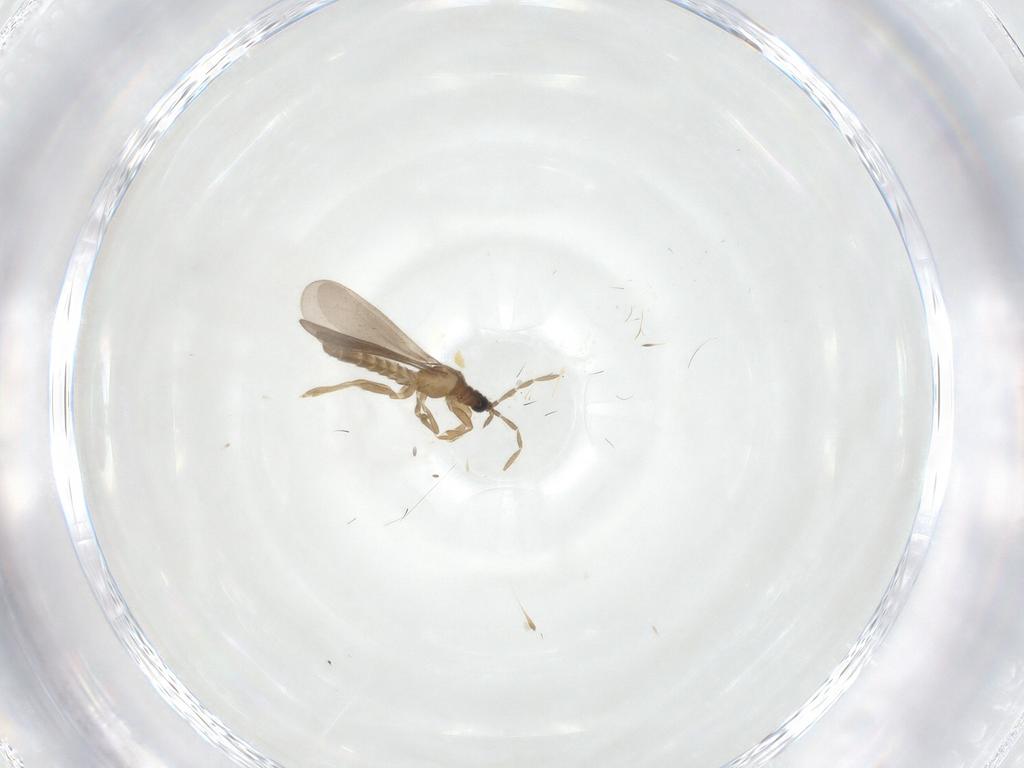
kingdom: Animalia
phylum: Arthropoda
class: Insecta
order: Hemiptera
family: Enicocephalidae
